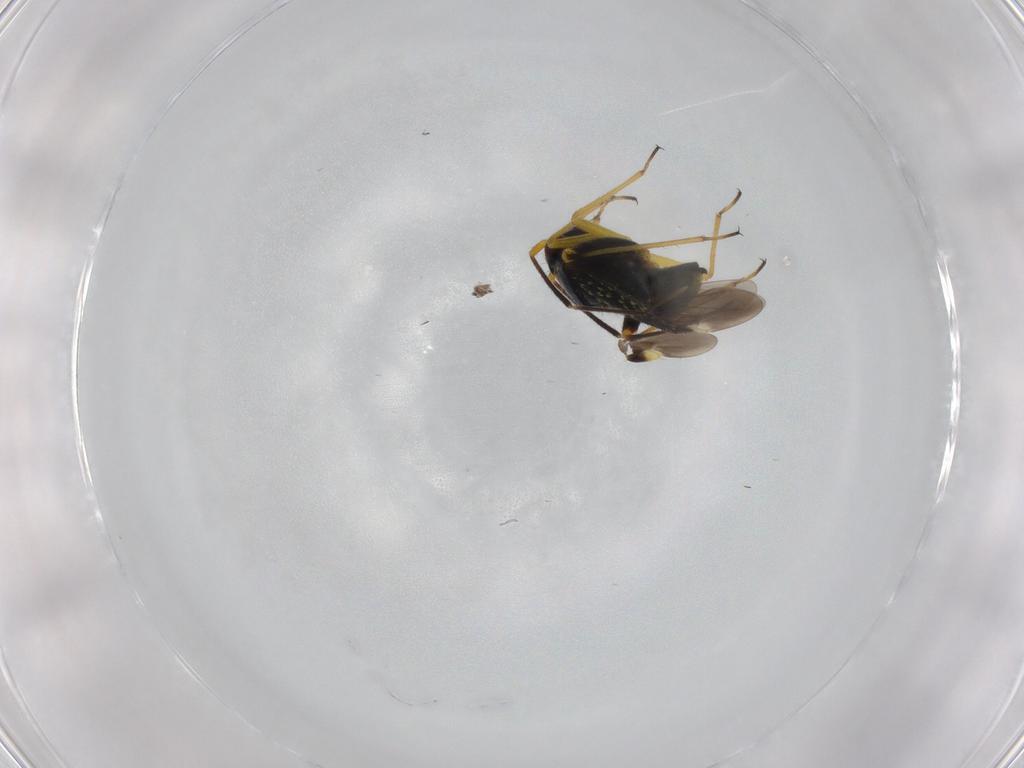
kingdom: Animalia
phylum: Arthropoda
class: Insecta
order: Hemiptera
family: Miridae
